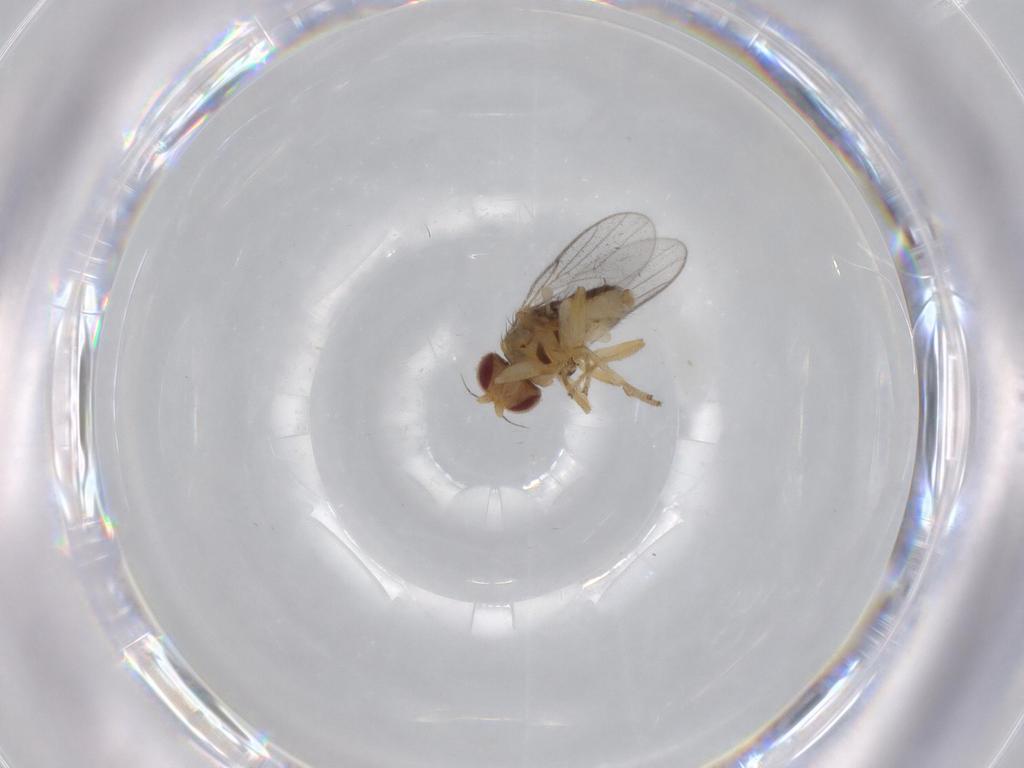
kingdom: Animalia
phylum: Arthropoda
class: Insecta
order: Diptera
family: Chloropidae
